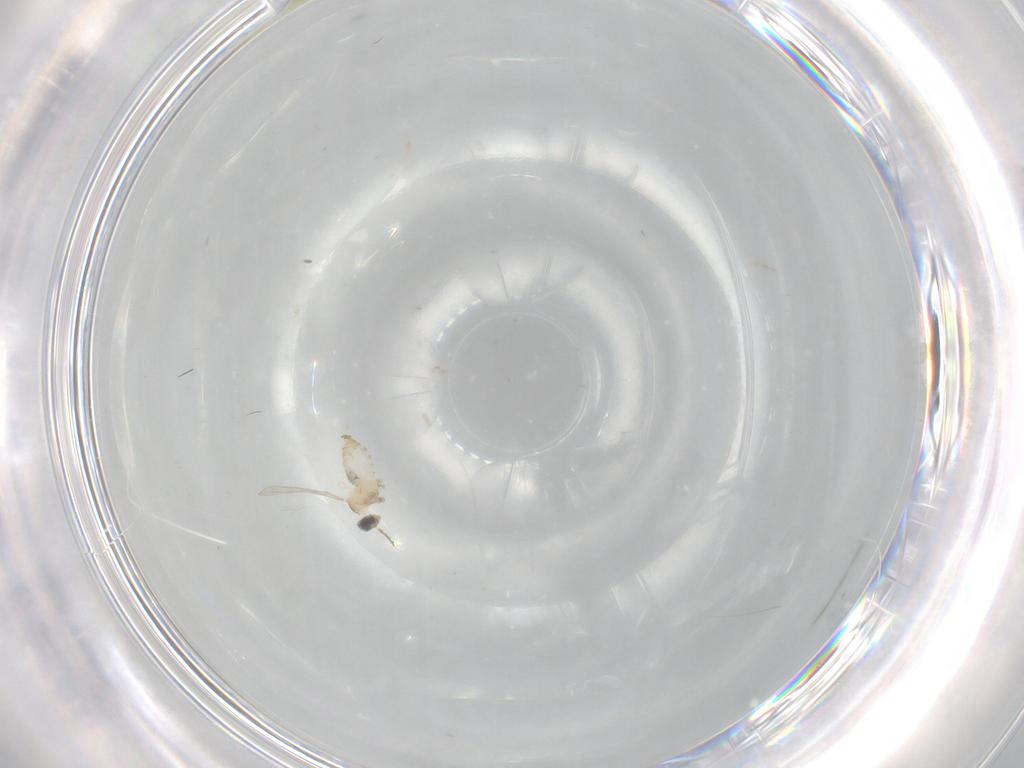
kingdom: Animalia
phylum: Arthropoda
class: Insecta
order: Diptera
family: Cecidomyiidae
